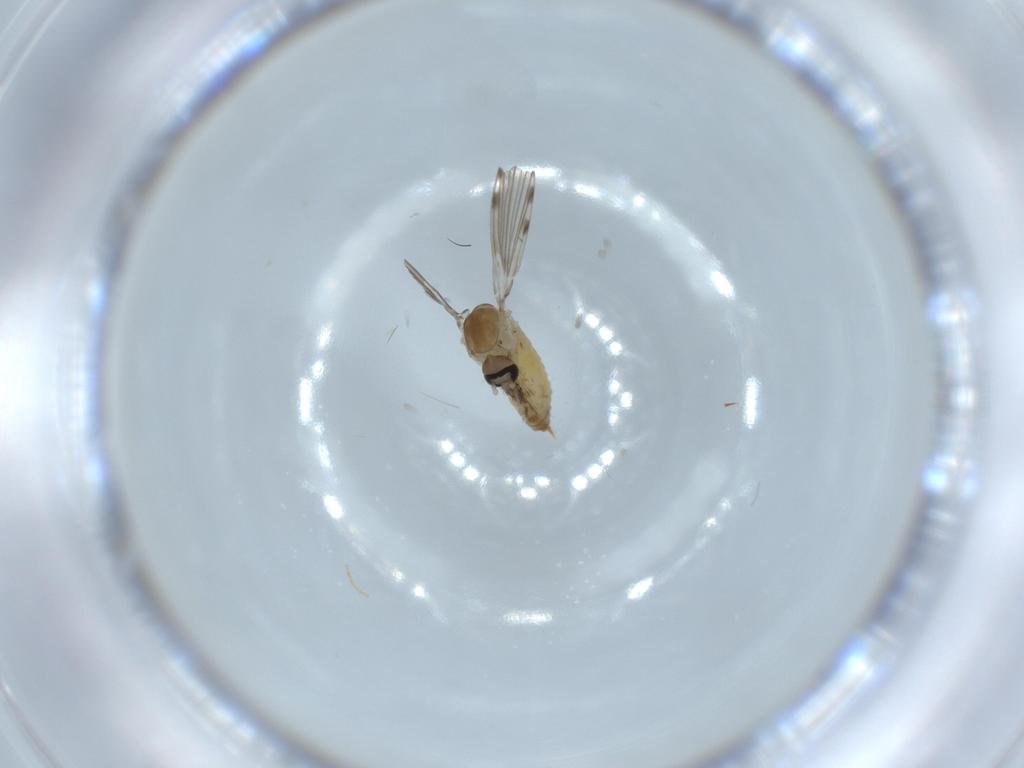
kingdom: Animalia
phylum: Arthropoda
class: Insecta
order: Diptera
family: Psychodidae
